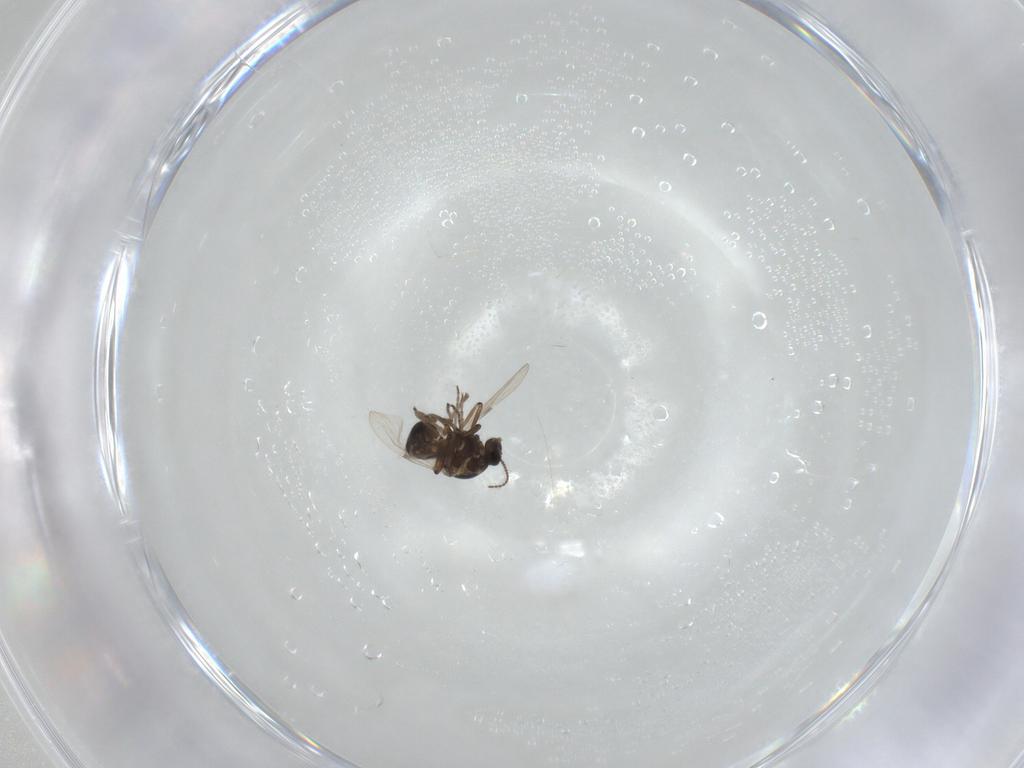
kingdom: Animalia
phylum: Arthropoda
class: Insecta
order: Diptera
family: Ceratopogonidae
